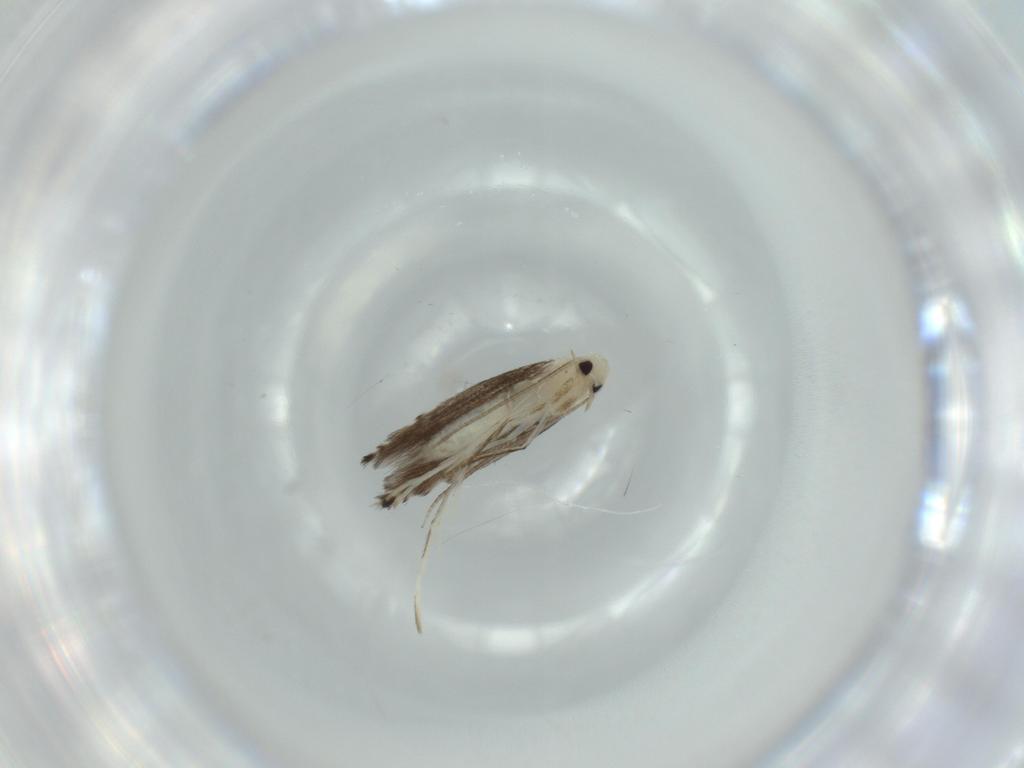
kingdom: Animalia
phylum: Arthropoda
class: Insecta
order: Lepidoptera
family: Gracillariidae
